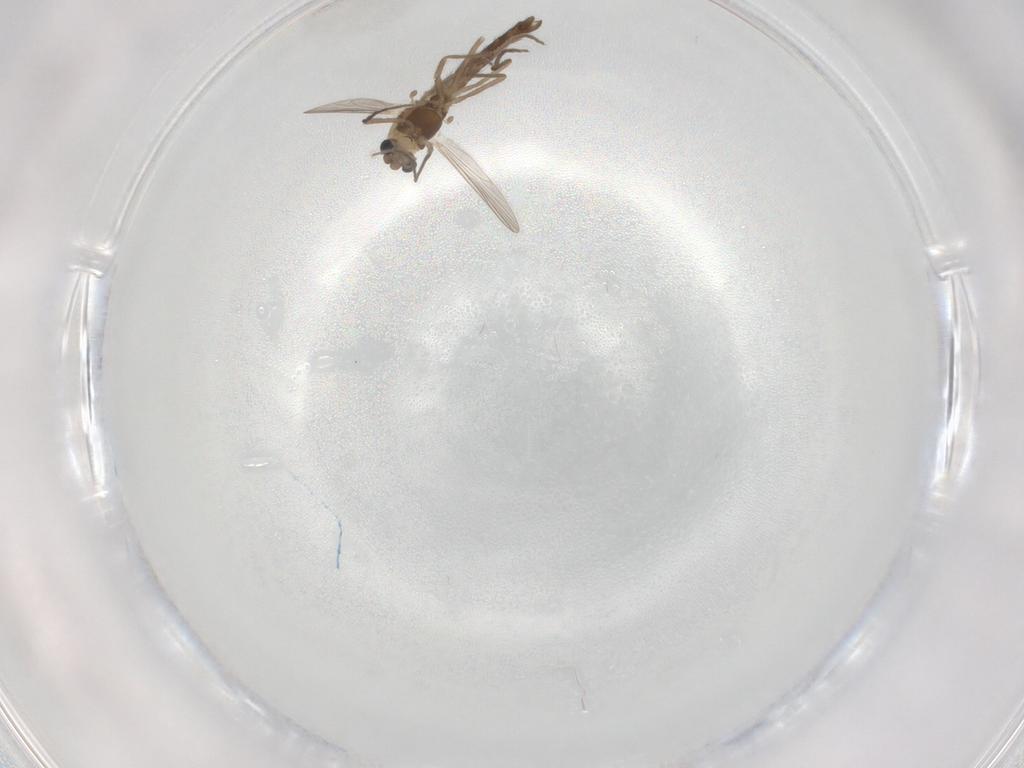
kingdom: Animalia
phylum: Arthropoda
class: Insecta
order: Diptera
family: Chironomidae
